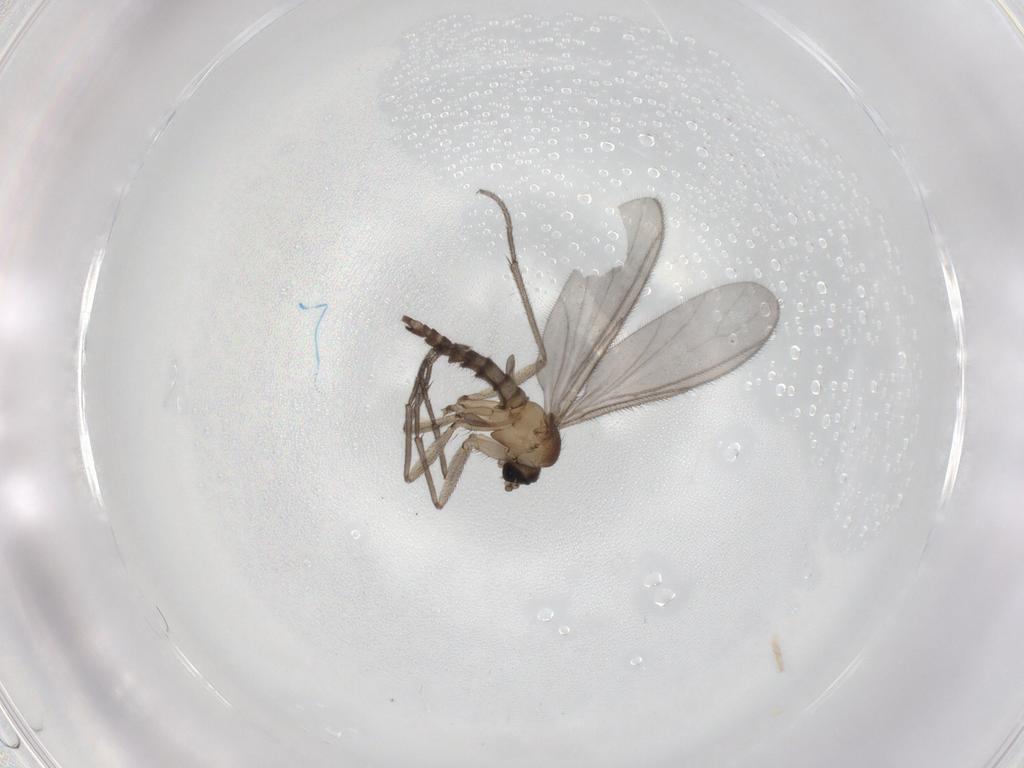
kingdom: Animalia
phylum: Arthropoda
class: Insecta
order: Diptera
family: Sciaridae
